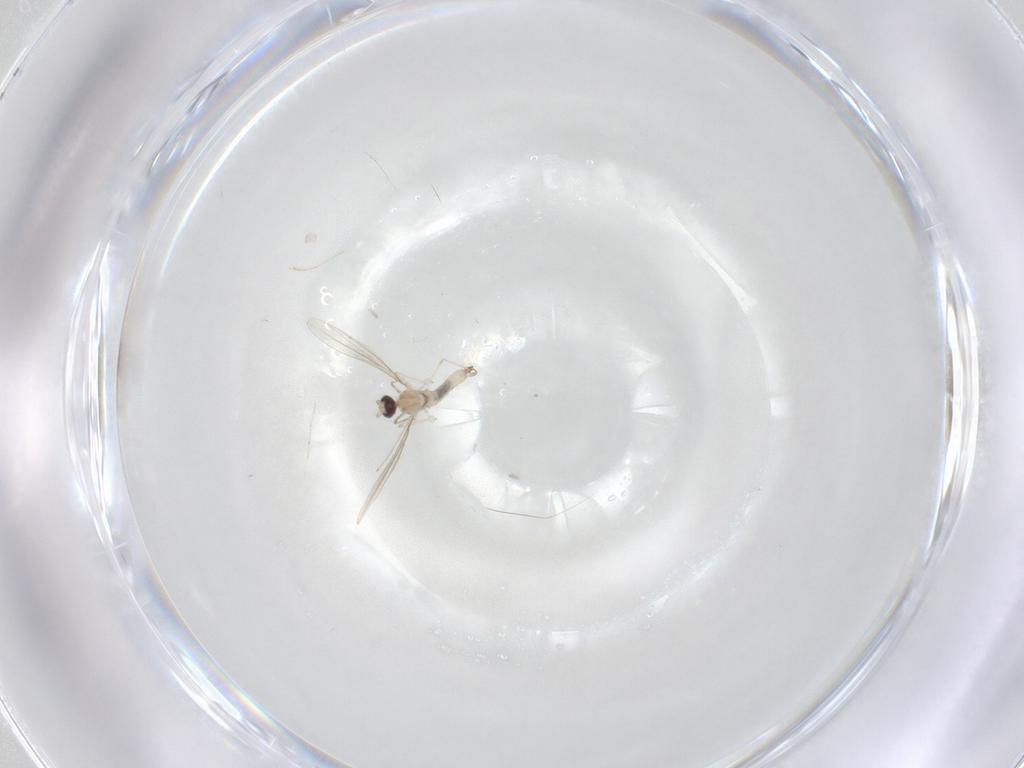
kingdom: Animalia
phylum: Arthropoda
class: Insecta
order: Diptera
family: Cecidomyiidae
